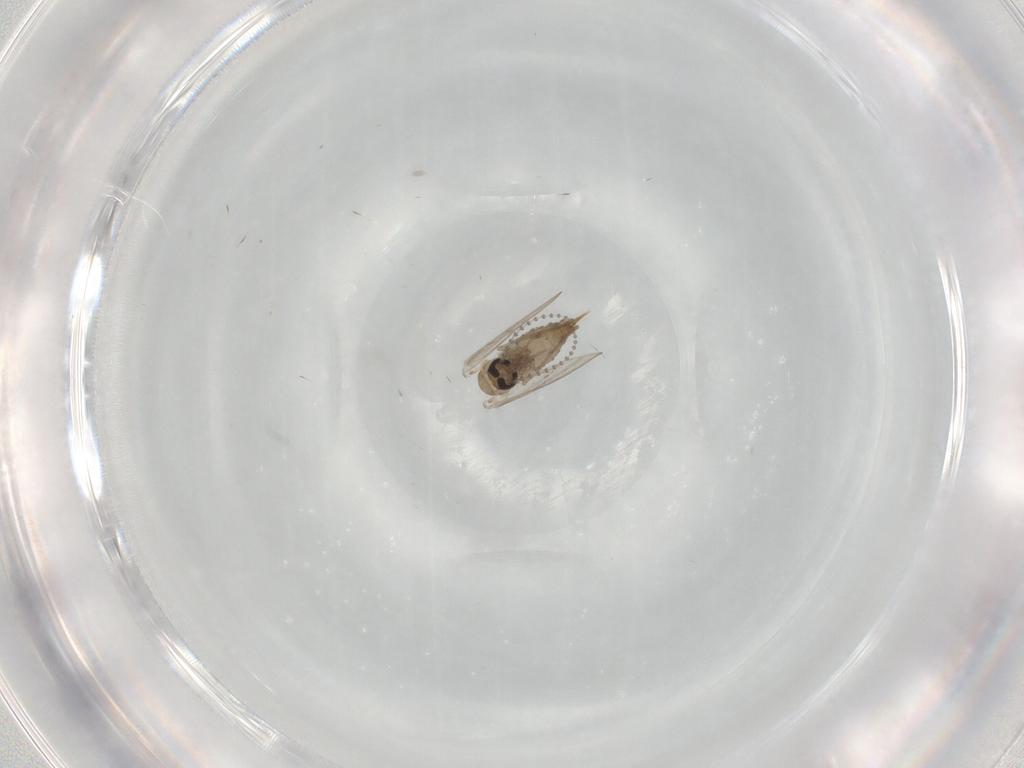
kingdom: Animalia
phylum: Arthropoda
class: Insecta
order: Diptera
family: Psychodidae
